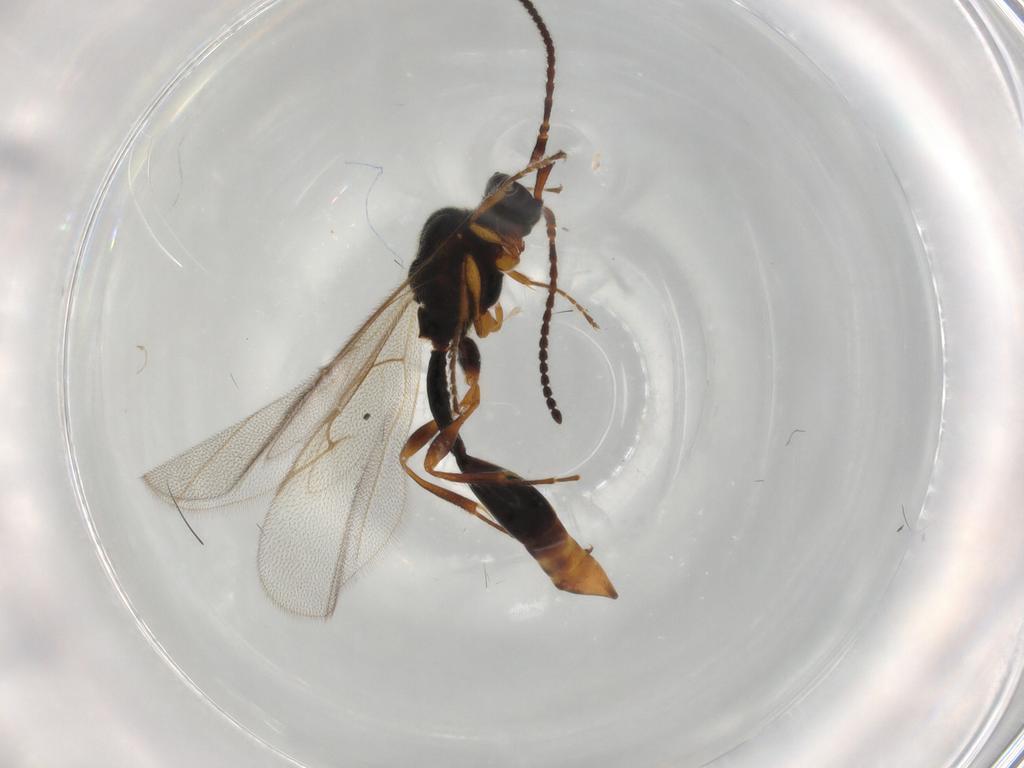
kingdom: Animalia
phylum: Arthropoda
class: Insecta
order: Hymenoptera
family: Diapriidae
